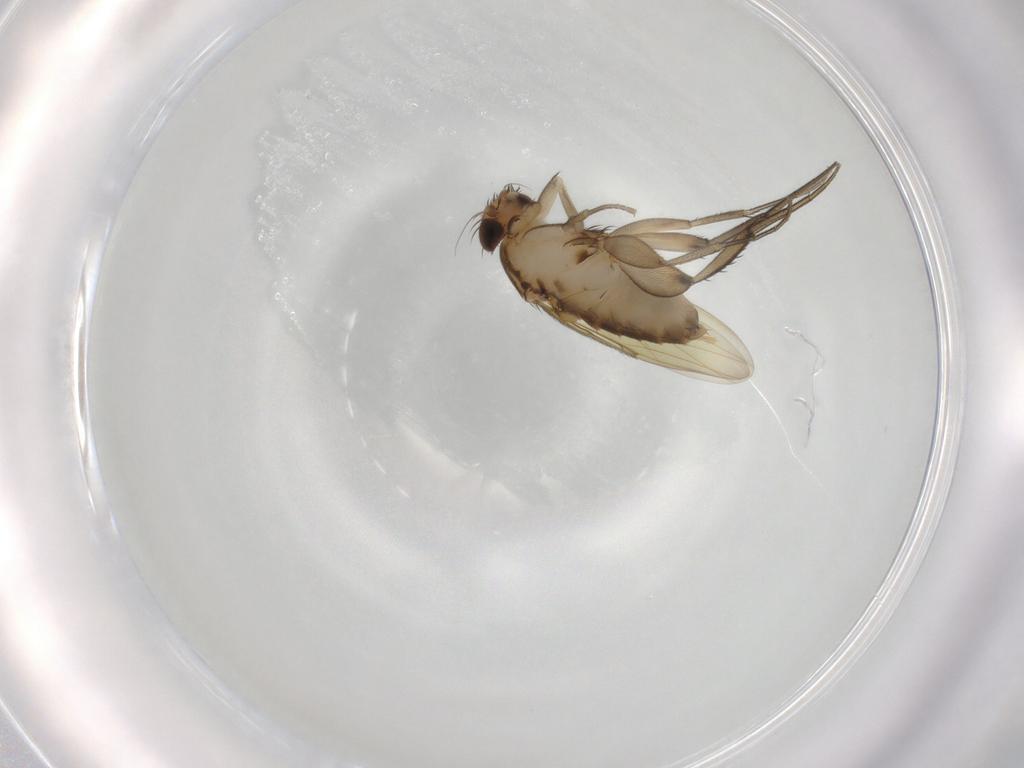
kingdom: Animalia
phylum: Arthropoda
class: Insecta
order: Diptera
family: Phoridae
